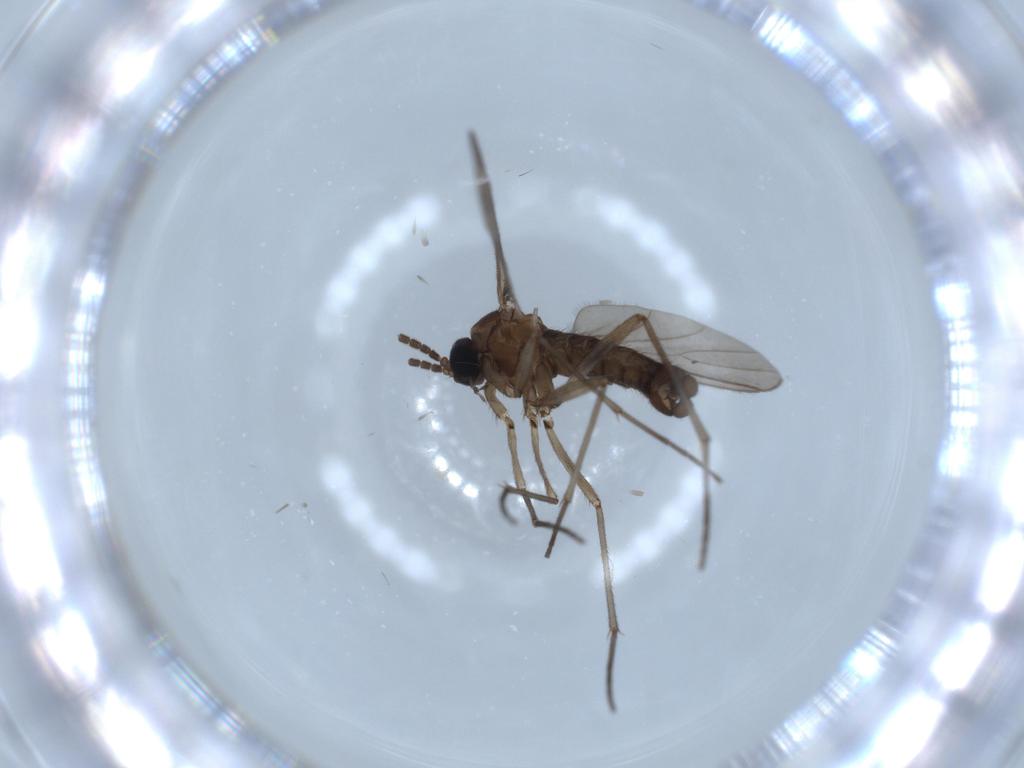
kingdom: Animalia
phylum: Arthropoda
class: Insecta
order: Diptera
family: Sciaridae
